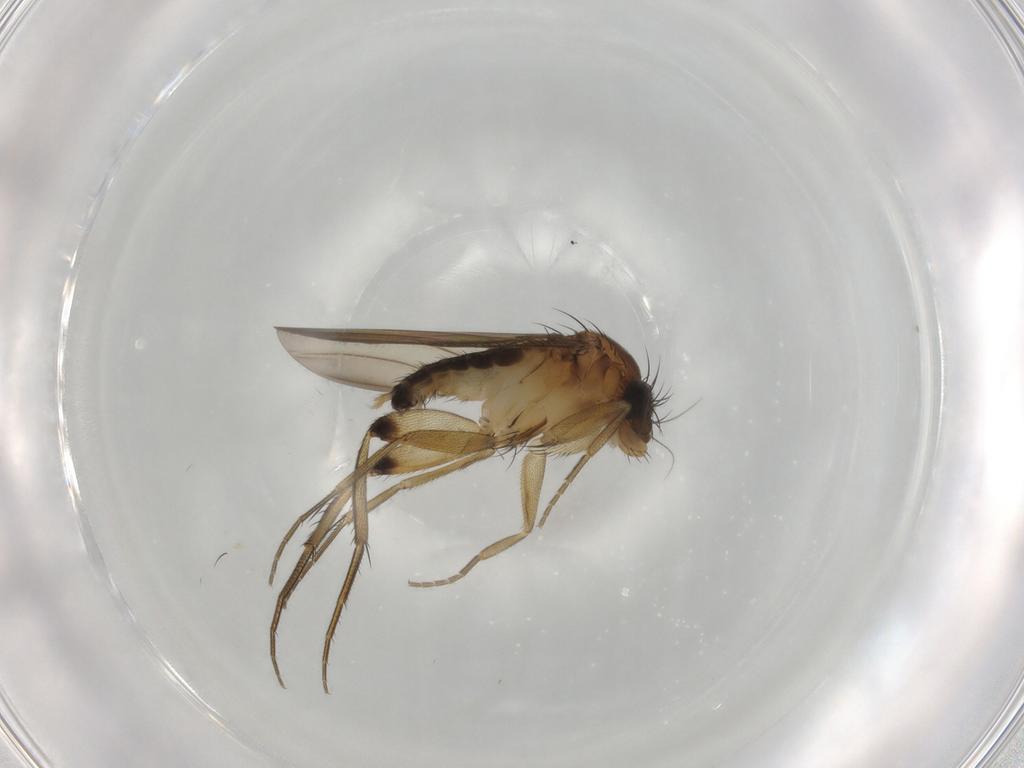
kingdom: Animalia
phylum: Arthropoda
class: Insecta
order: Diptera
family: Phoridae
